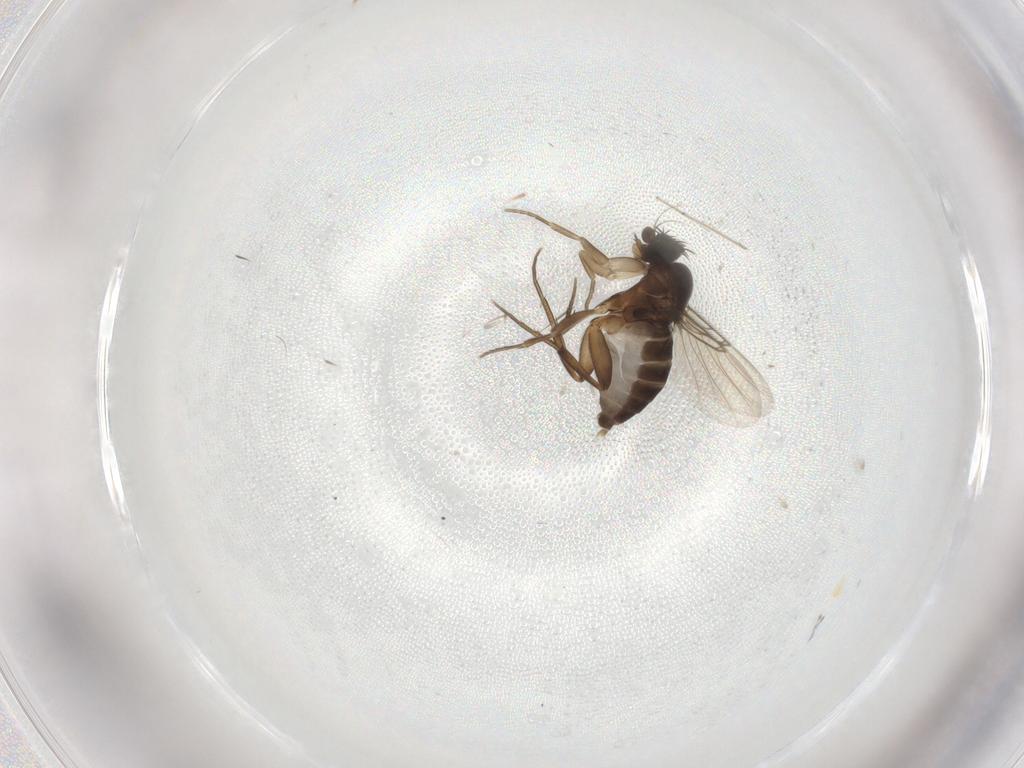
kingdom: Animalia
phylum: Arthropoda
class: Insecta
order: Diptera
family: Phoridae
